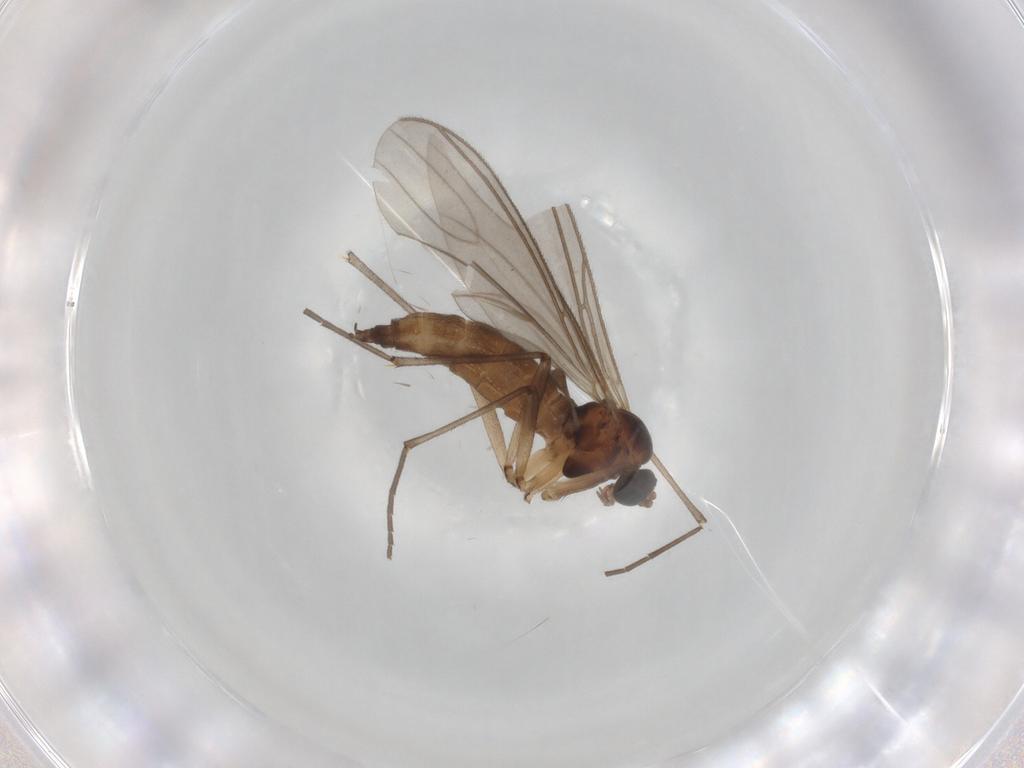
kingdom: Animalia
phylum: Arthropoda
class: Insecta
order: Diptera
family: Sciaridae
